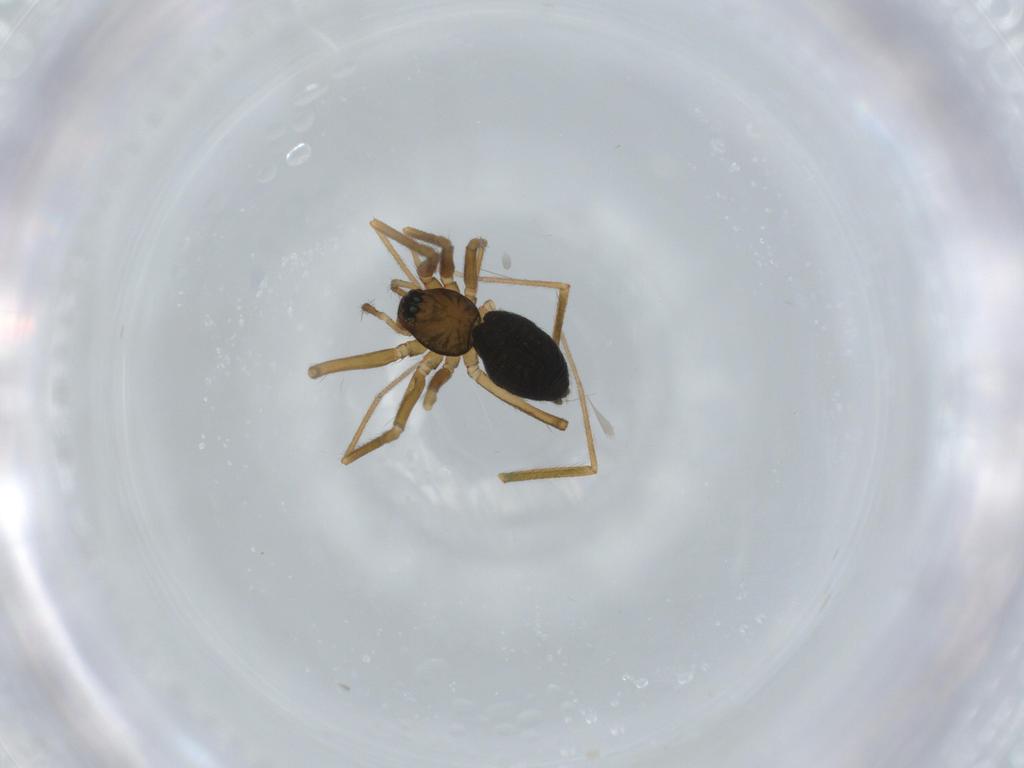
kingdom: Animalia
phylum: Arthropoda
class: Arachnida
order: Araneae
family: Linyphiidae
